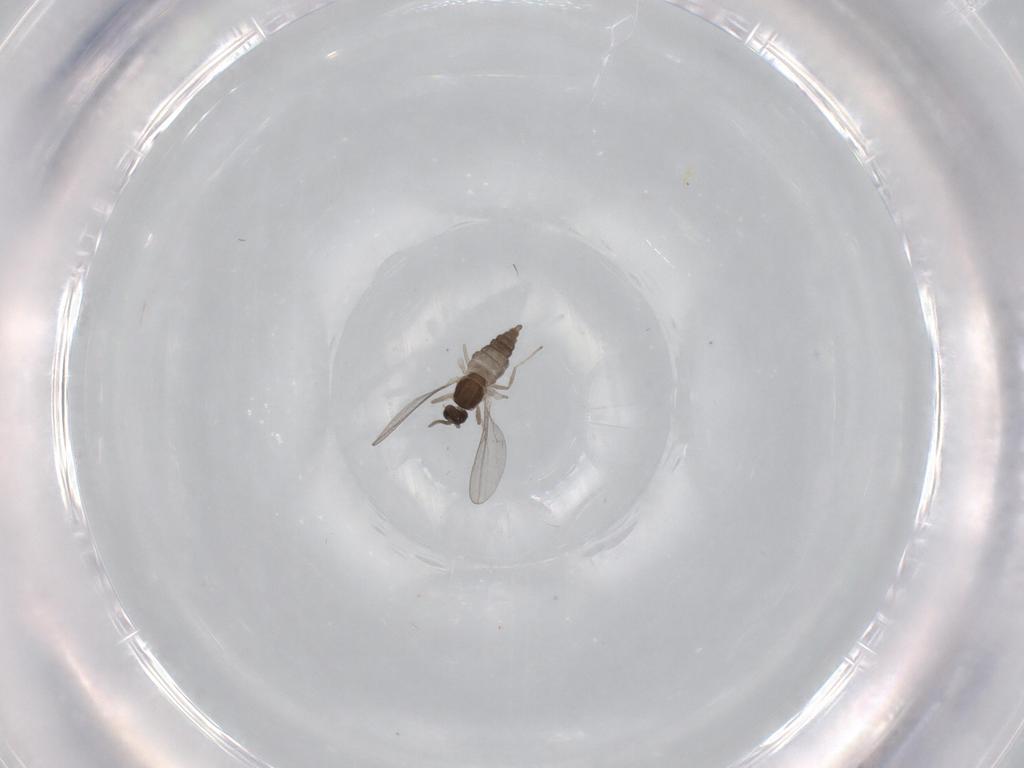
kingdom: Animalia
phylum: Arthropoda
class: Insecta
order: Diptera
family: Cecidomyiidae
